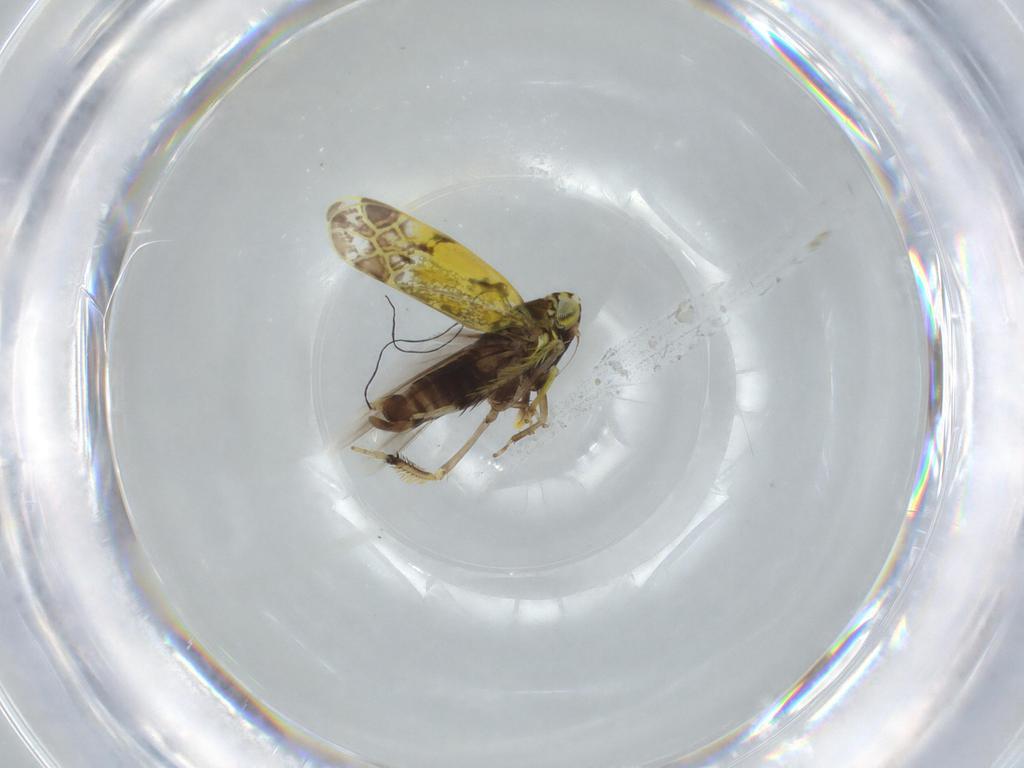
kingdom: Animalia
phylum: Arthropoda
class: Insecta
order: Hemiptera
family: Cicadellidae
